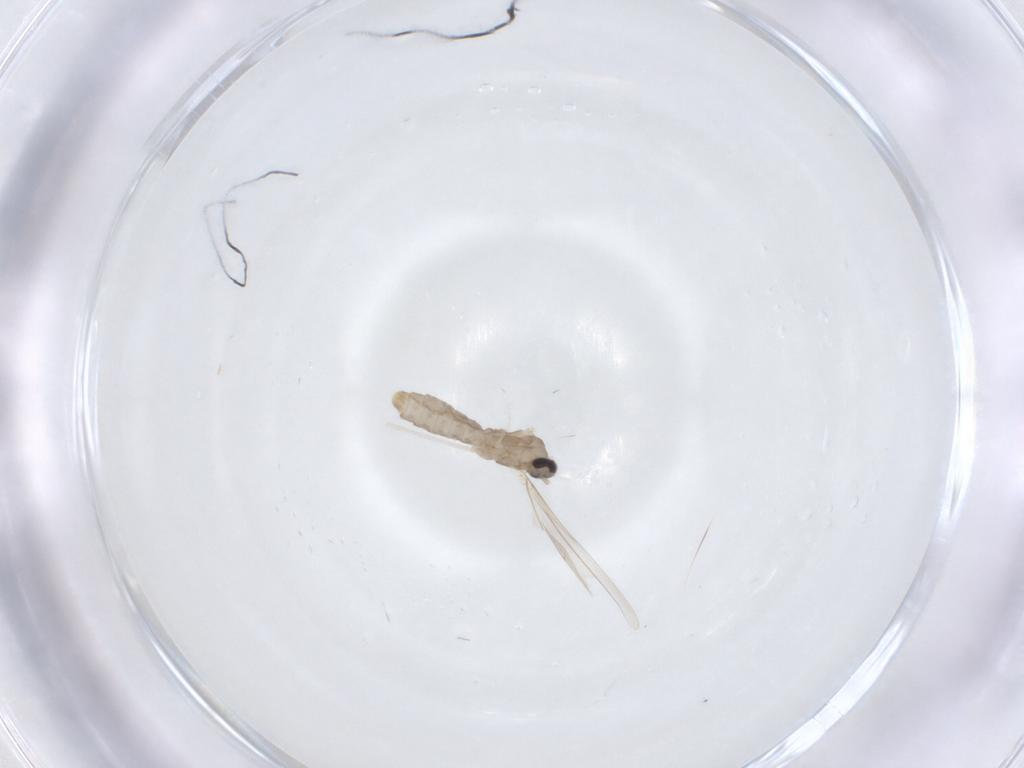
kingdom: Animalia
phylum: Arthropoda
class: Insecta
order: Diptera
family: Cecidomyiidae
